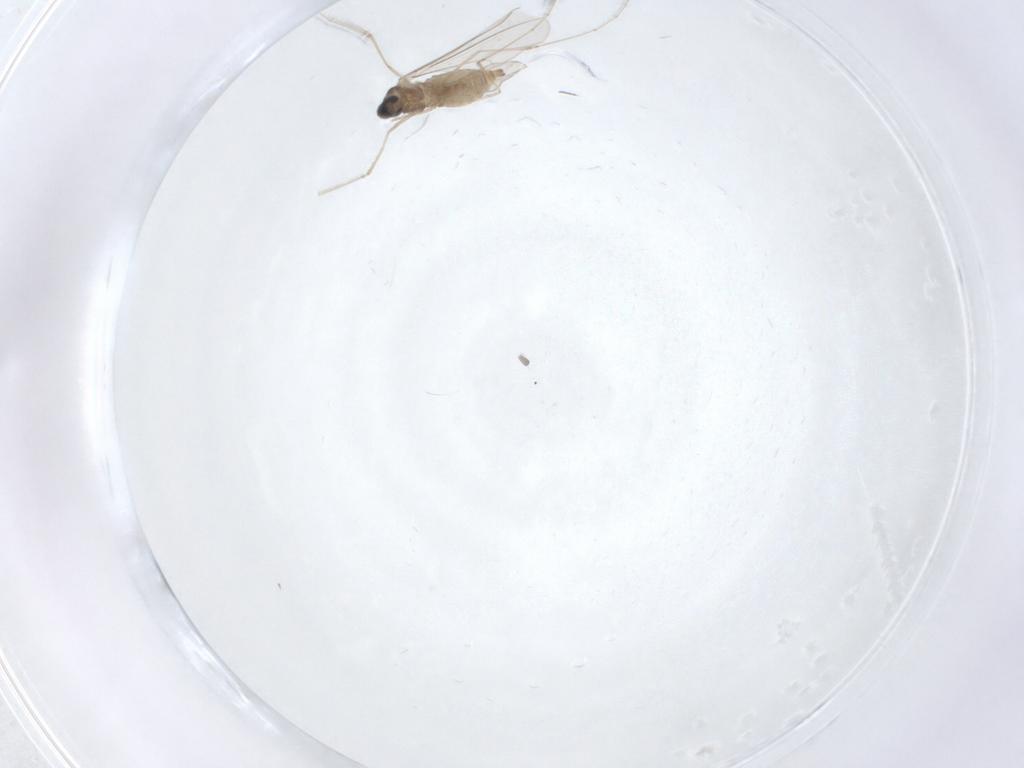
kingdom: Animalia
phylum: Arthropoda
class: Insecta
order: Diptera
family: Cecidomyiidae
